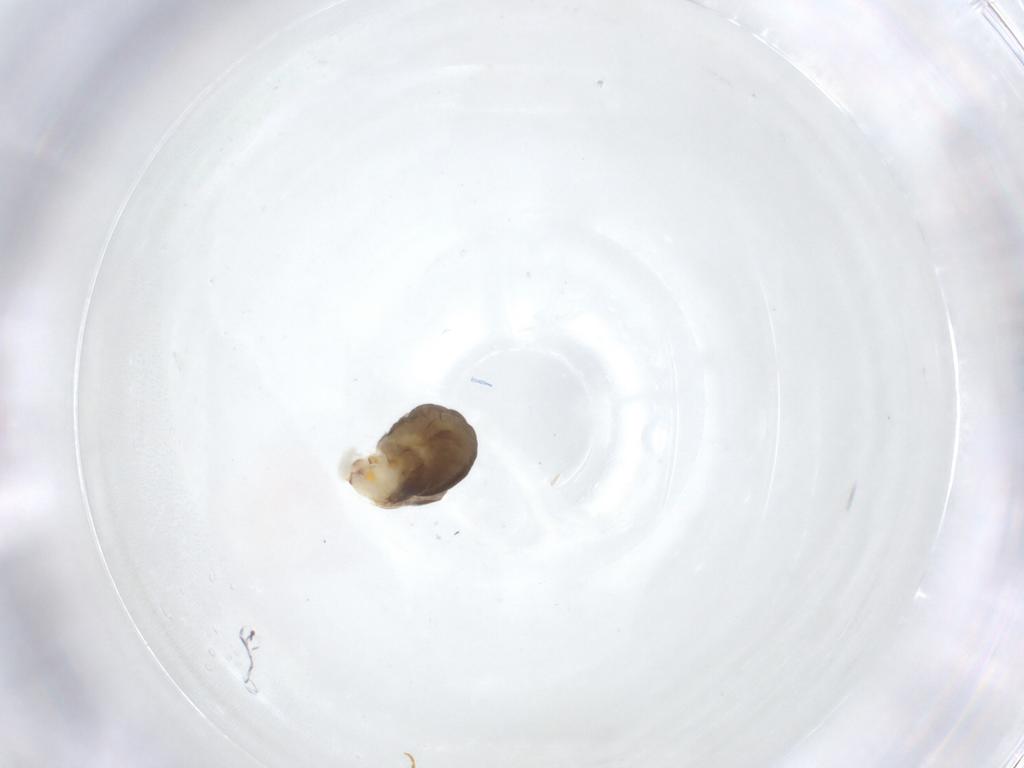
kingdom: Animalia
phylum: Arthropoda
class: Insecta
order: Hymenoptera
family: Dryinidae
